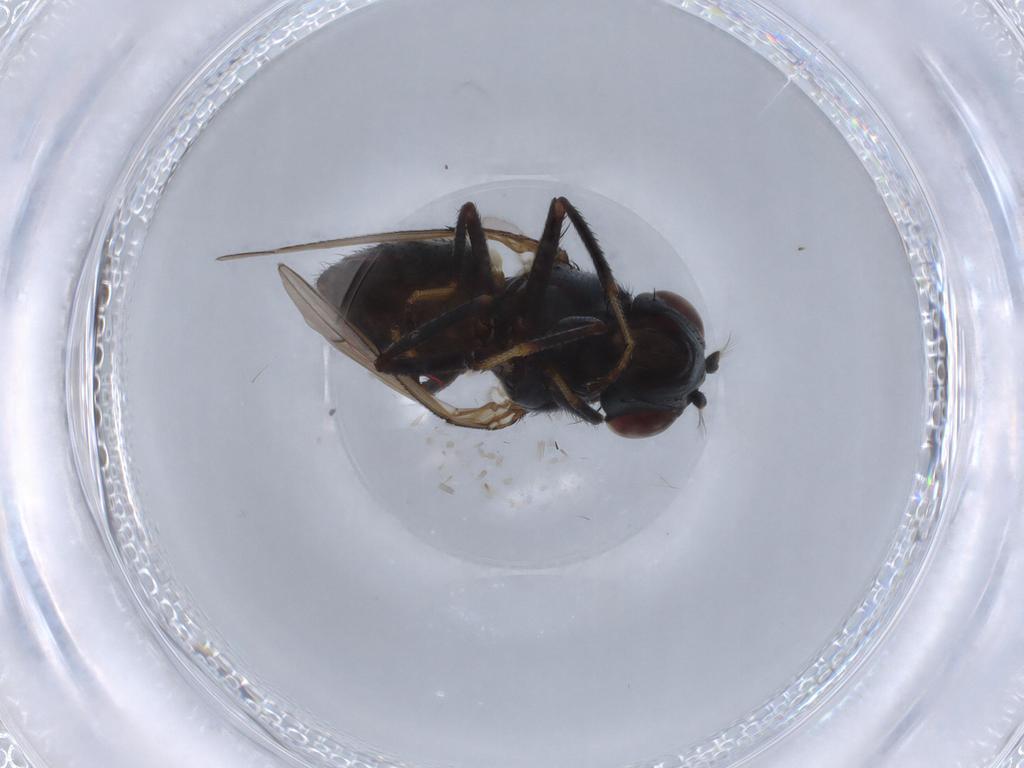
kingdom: Animalia
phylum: Arthropoda
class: Insecta
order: Diptera
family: Ephydridae
